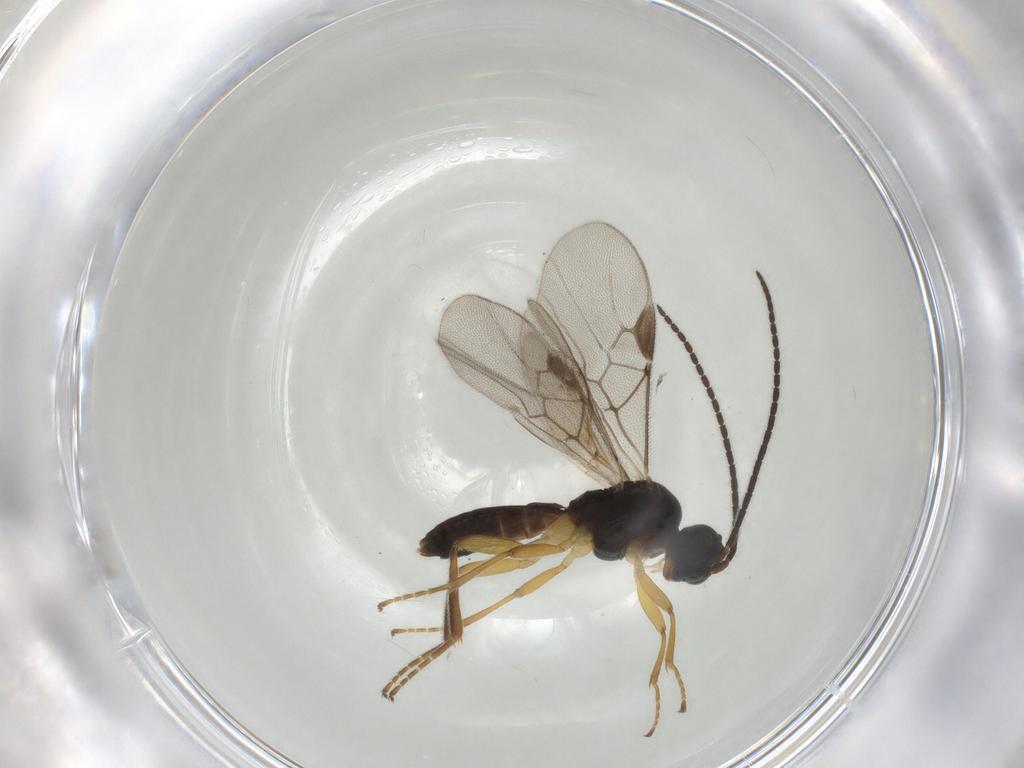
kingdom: Animalia
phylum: Arthropoda
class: Insecta
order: Hymenoptera
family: Braconidae
